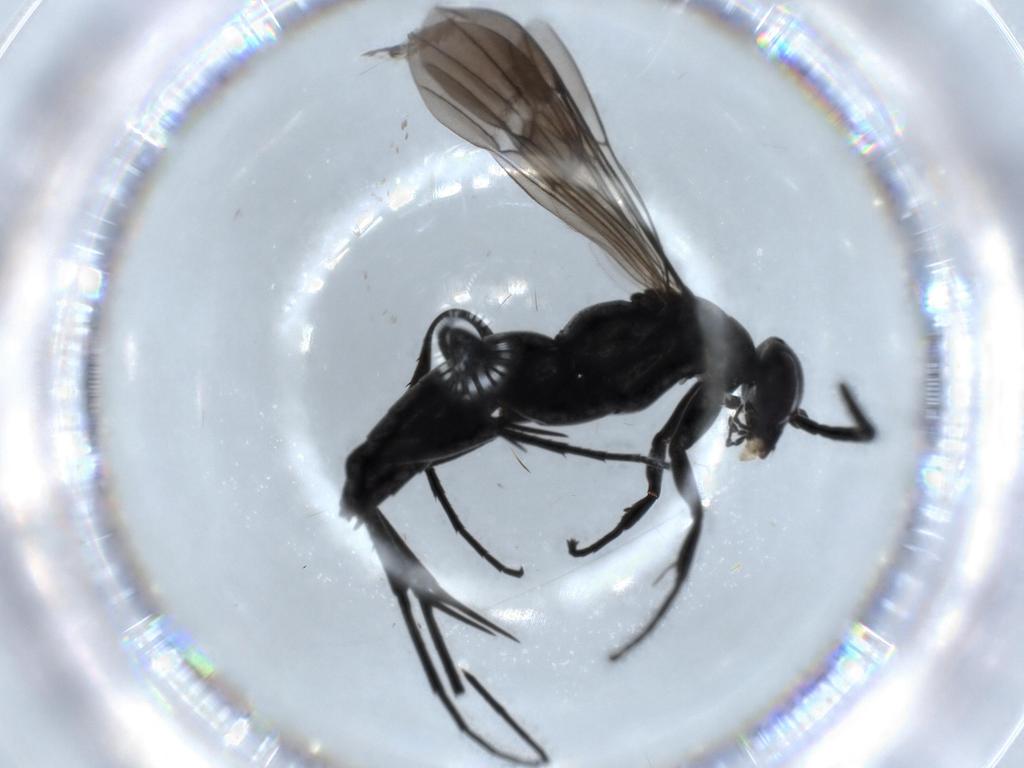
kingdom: Animalia
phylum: Arthropoda
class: Insecta
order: Hymenoptera
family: Pompilidae
